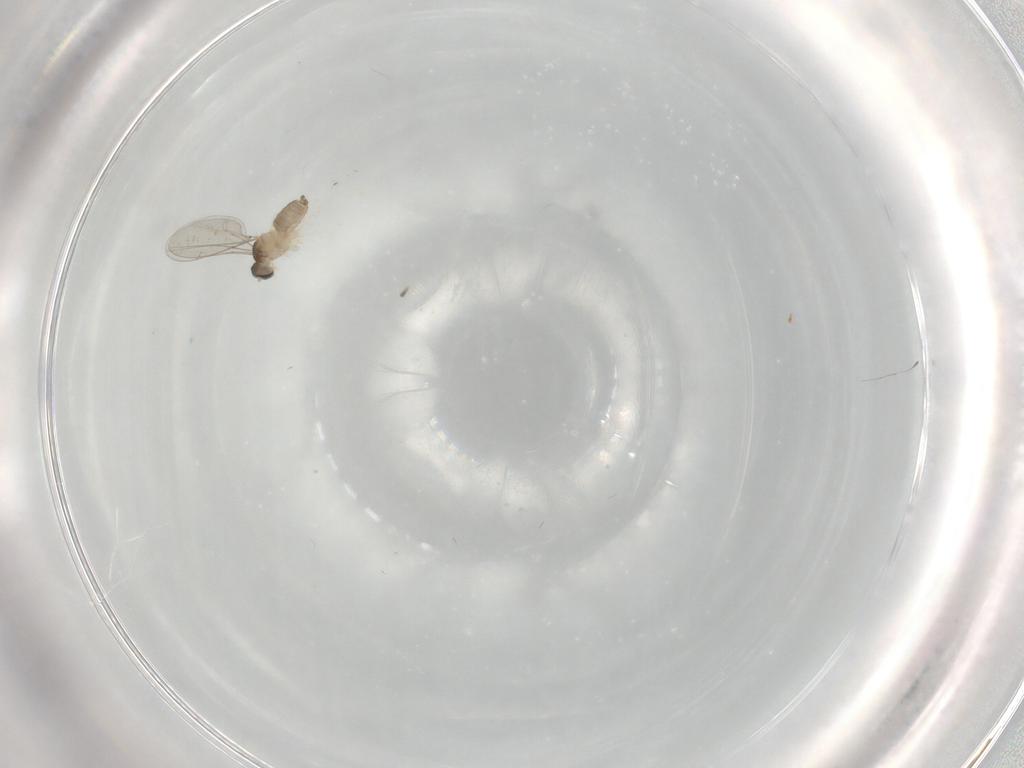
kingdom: Animalia
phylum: Arthropoda
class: Insecta
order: Diptera
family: Cecidomyiidae
